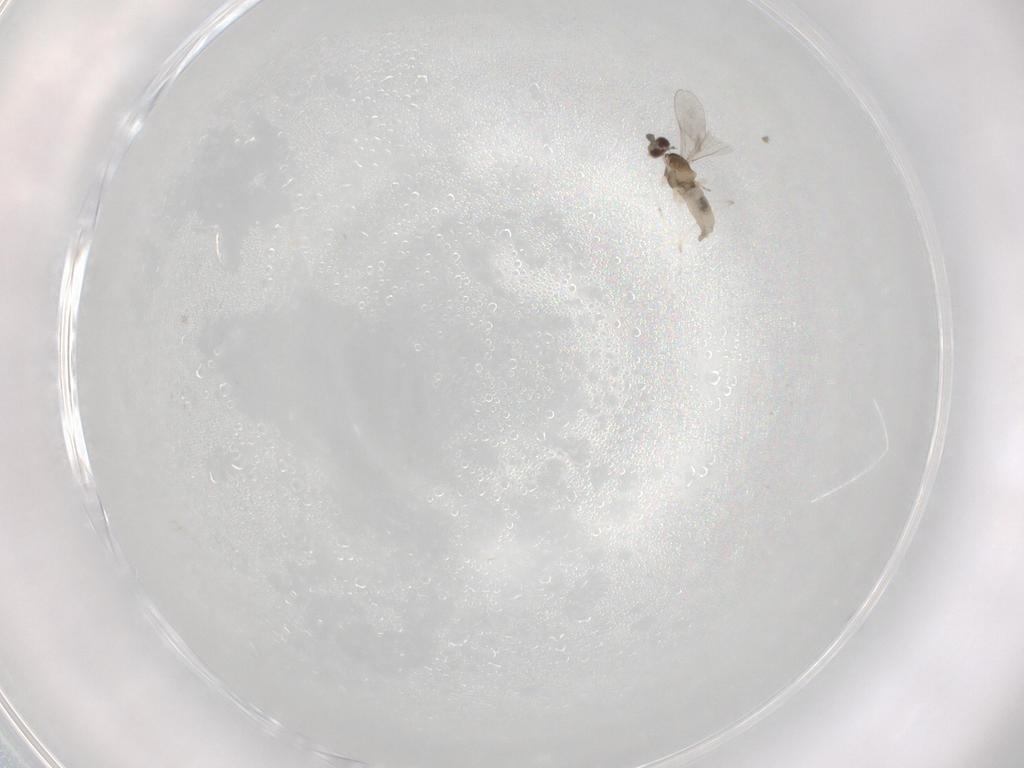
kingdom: Animalia
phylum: Arthropoda
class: Insecta
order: Diptera
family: Cecidomyiidae
